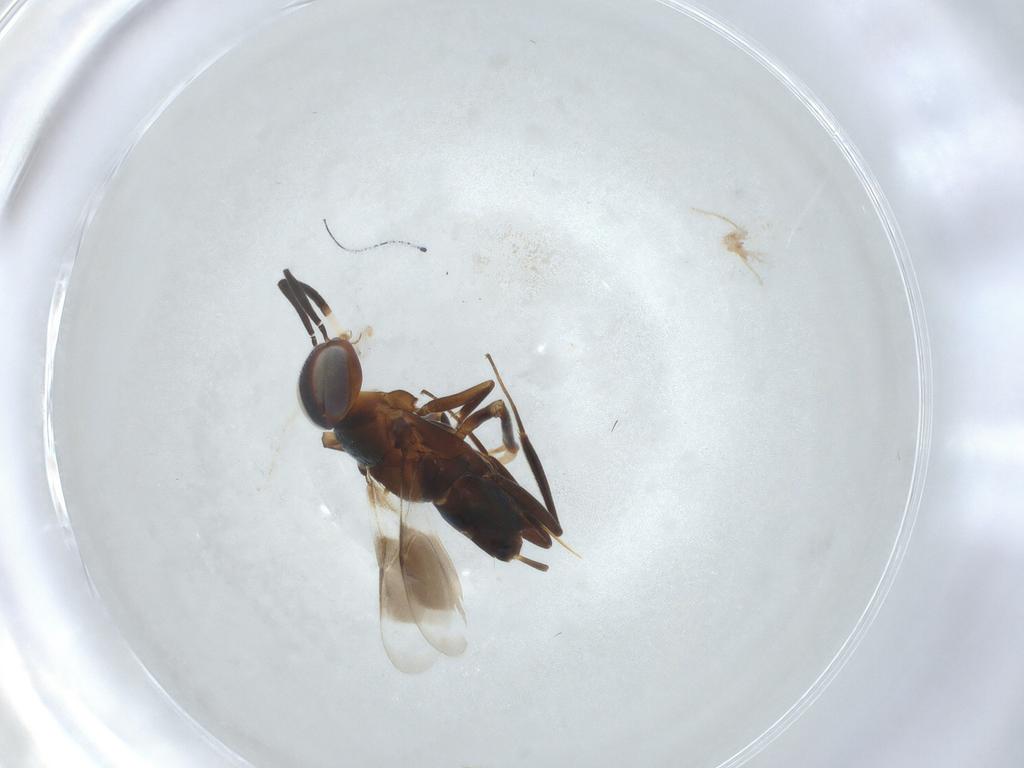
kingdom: Animalia
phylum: Arthropoda
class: Insecta
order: Hymenoptera
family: Encyrtidae
